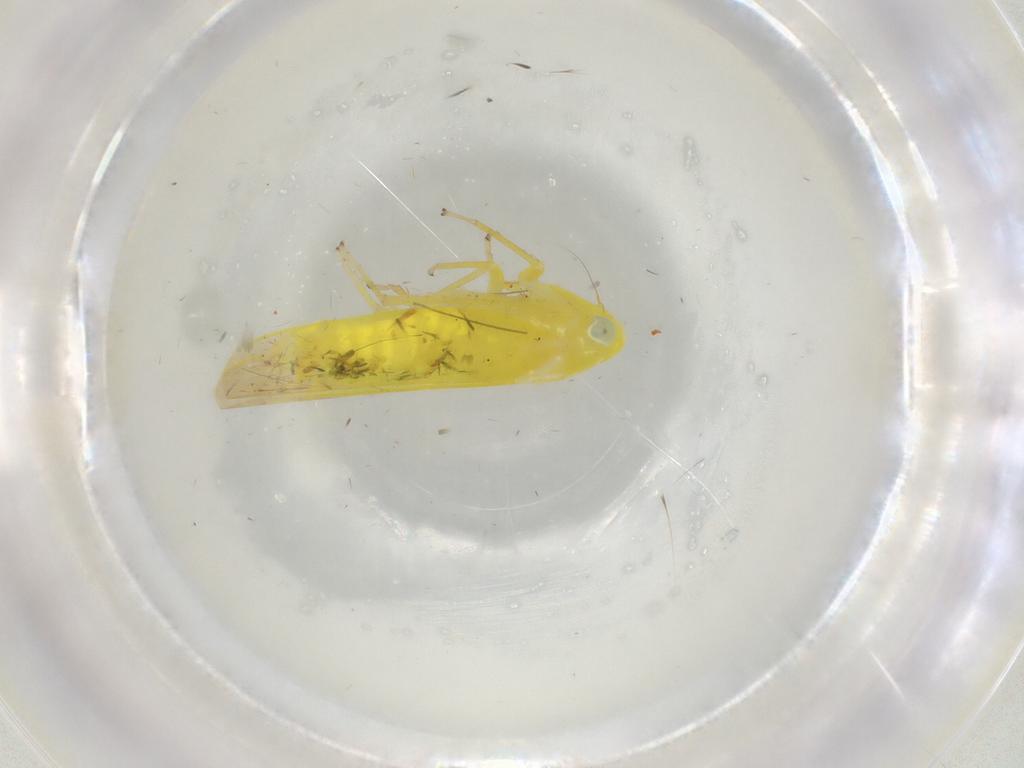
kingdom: Animalia
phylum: Arthropoda
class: Insecta
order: Hemiptera
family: Cicadellidae
